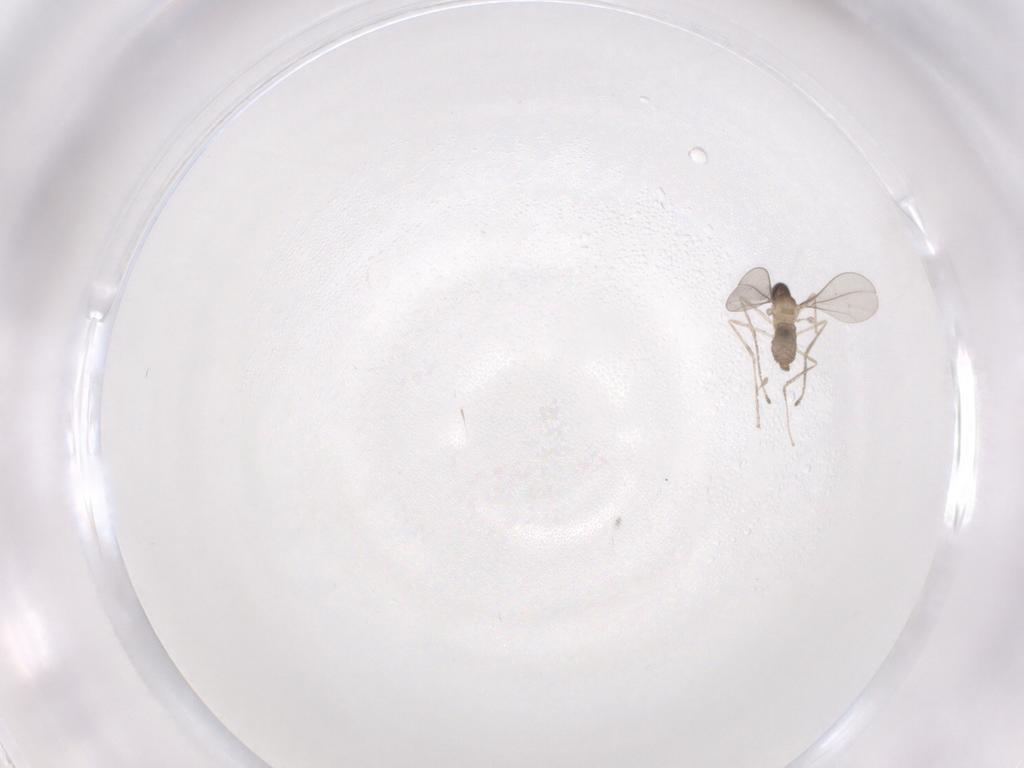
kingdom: Animalia
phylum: Arthropoda
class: Insecta
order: Diptera
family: Cecidomyiidae
